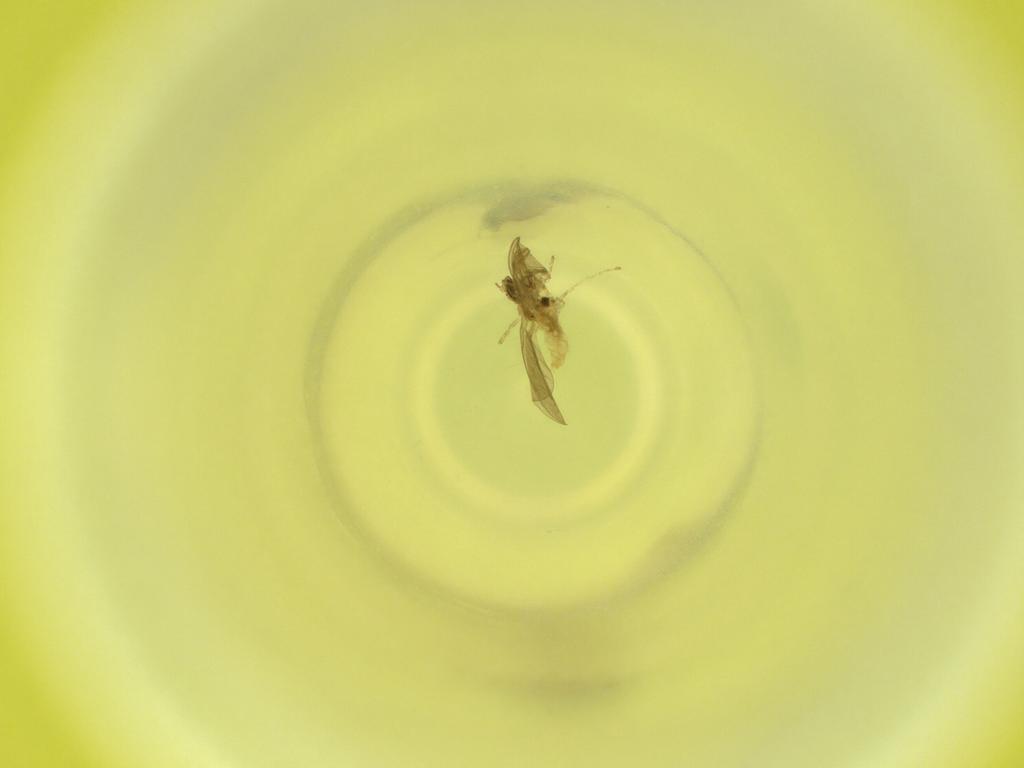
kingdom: Animalia
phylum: Arthropoda
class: Insecta
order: Diptera
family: Cecidomyiidae
